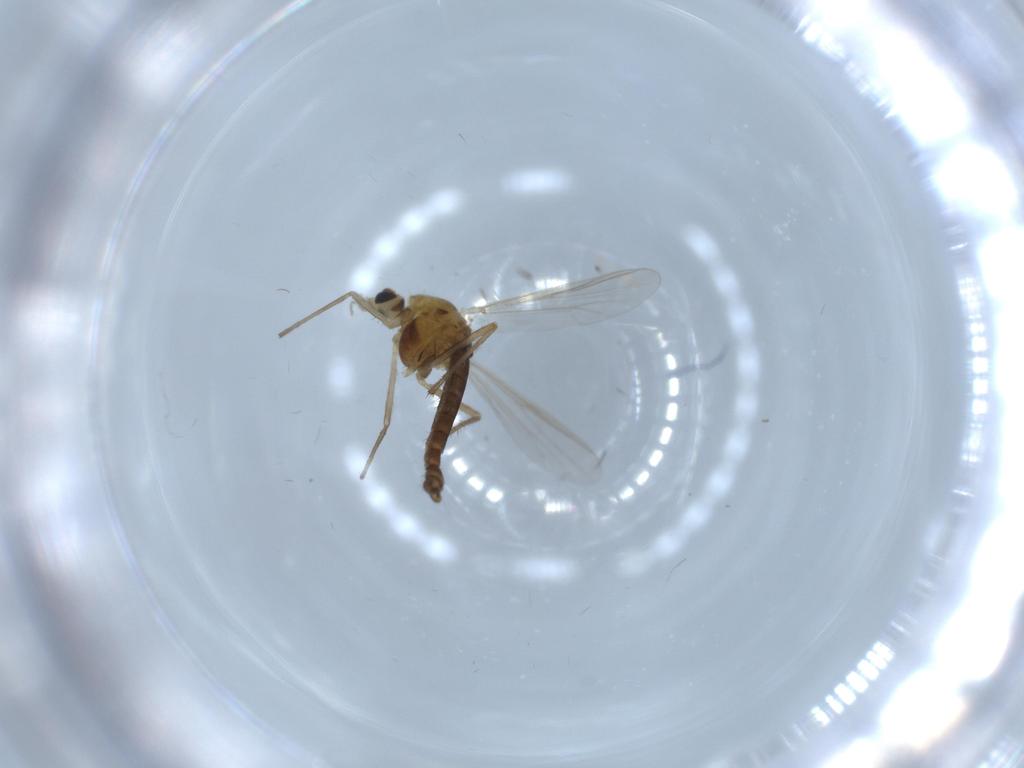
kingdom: Animalia
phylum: Arthropoda
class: Insecta
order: Diptera
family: Chironomidae
